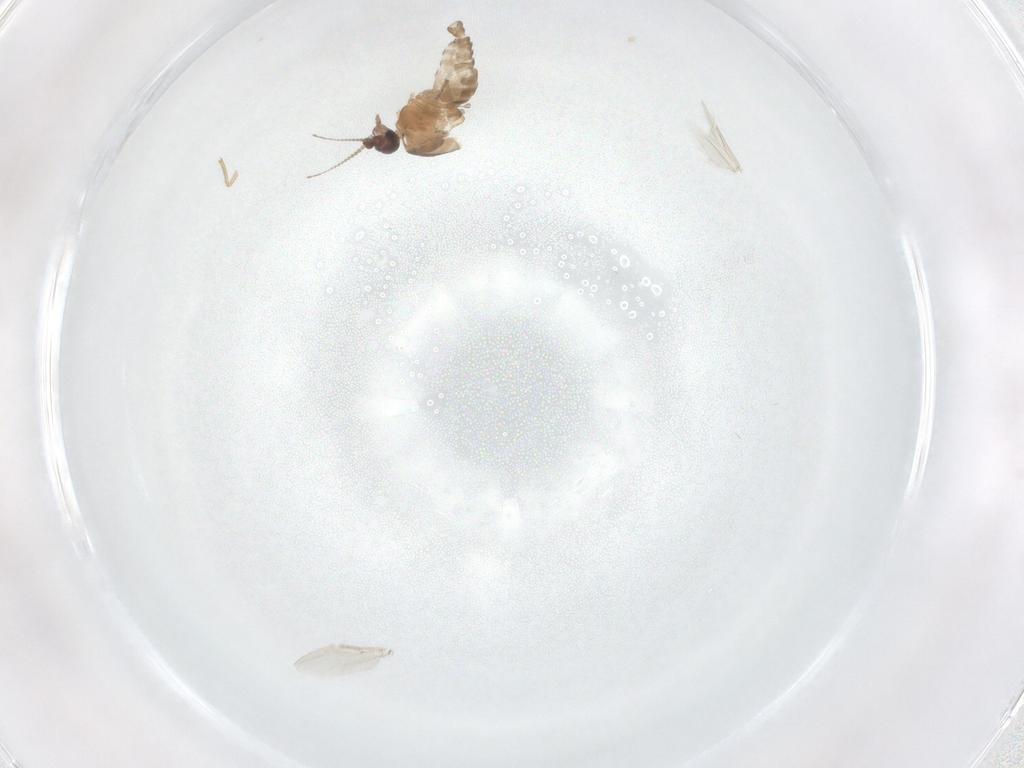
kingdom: Animalia
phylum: Arthropoda
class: Insecta
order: Diptera
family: Ceratopogonidae
